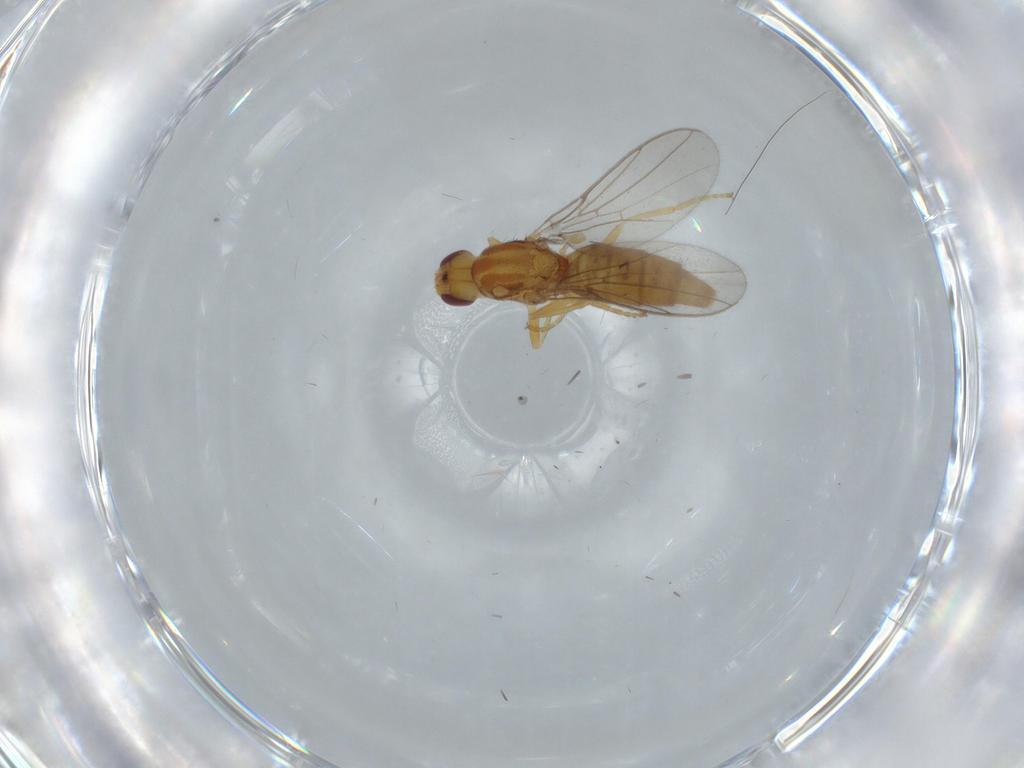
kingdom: Animalia
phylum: Arthropoda
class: Insecta
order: Diptera
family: Chloropidae
